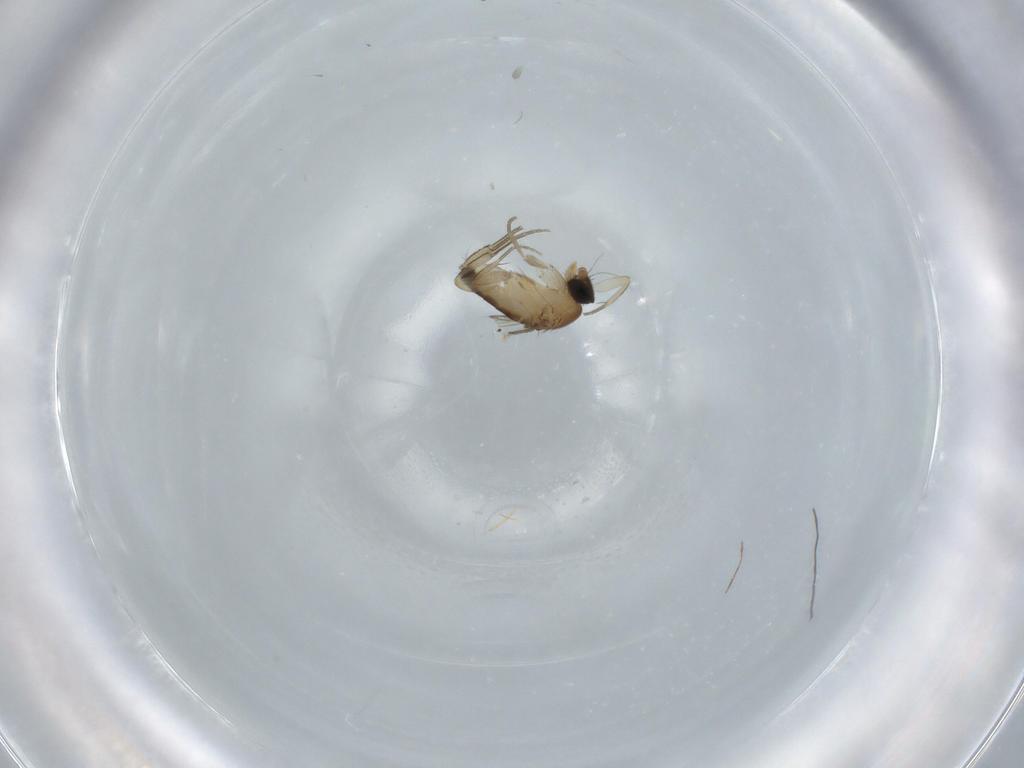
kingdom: Animalia
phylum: Arthropoda
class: Insecta
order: Diptera
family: Phoridae
